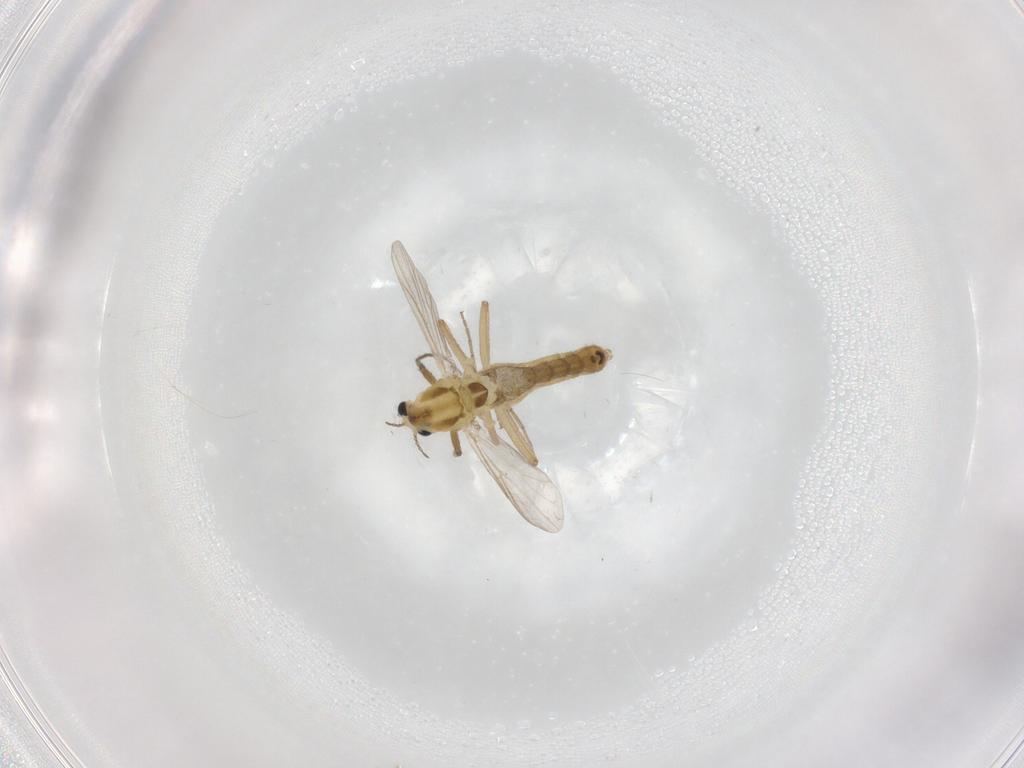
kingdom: Animalia
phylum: Arthropoda
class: Insecta
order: Diptera
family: Chironomidae
